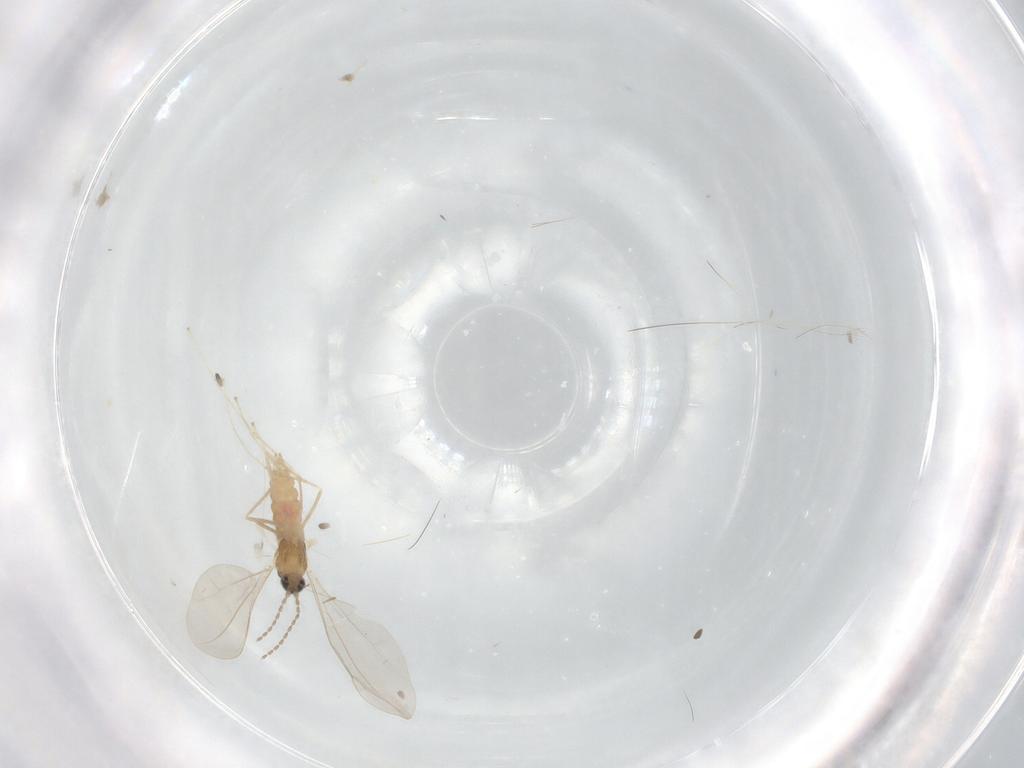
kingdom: Animalia
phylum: Arthropoda
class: Insecta
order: Diptera
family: Cecidomyiidae
